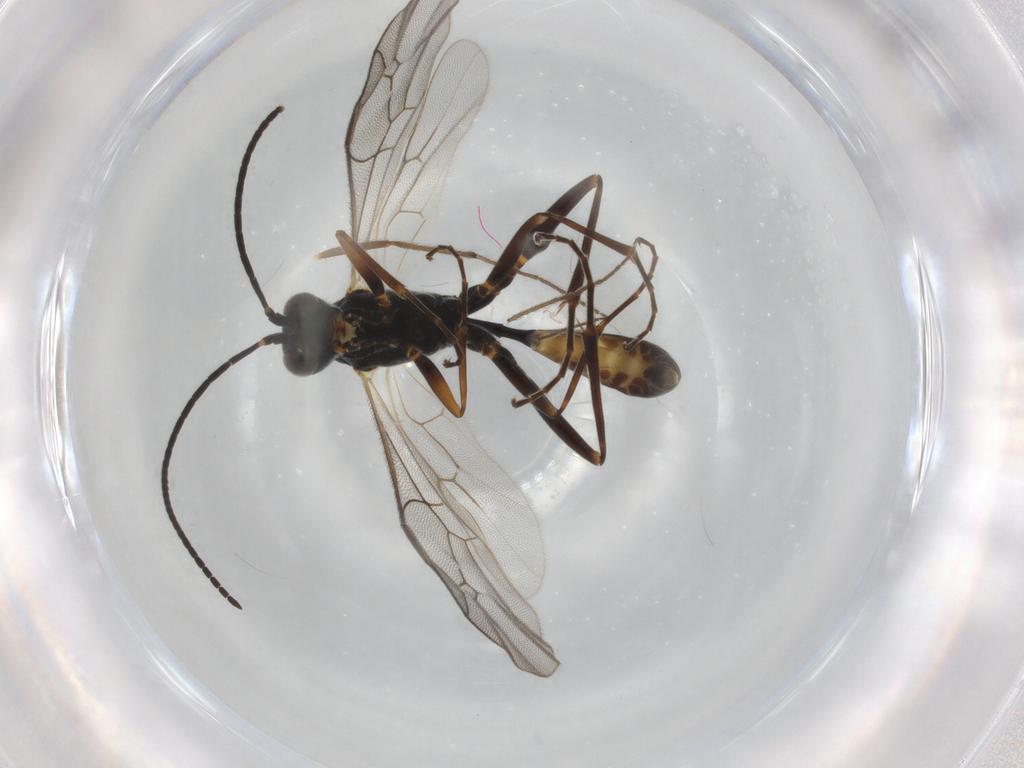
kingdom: Animalia
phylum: Arthropoda
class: Insecta
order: Hymenoptera
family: Ichneumonidae
